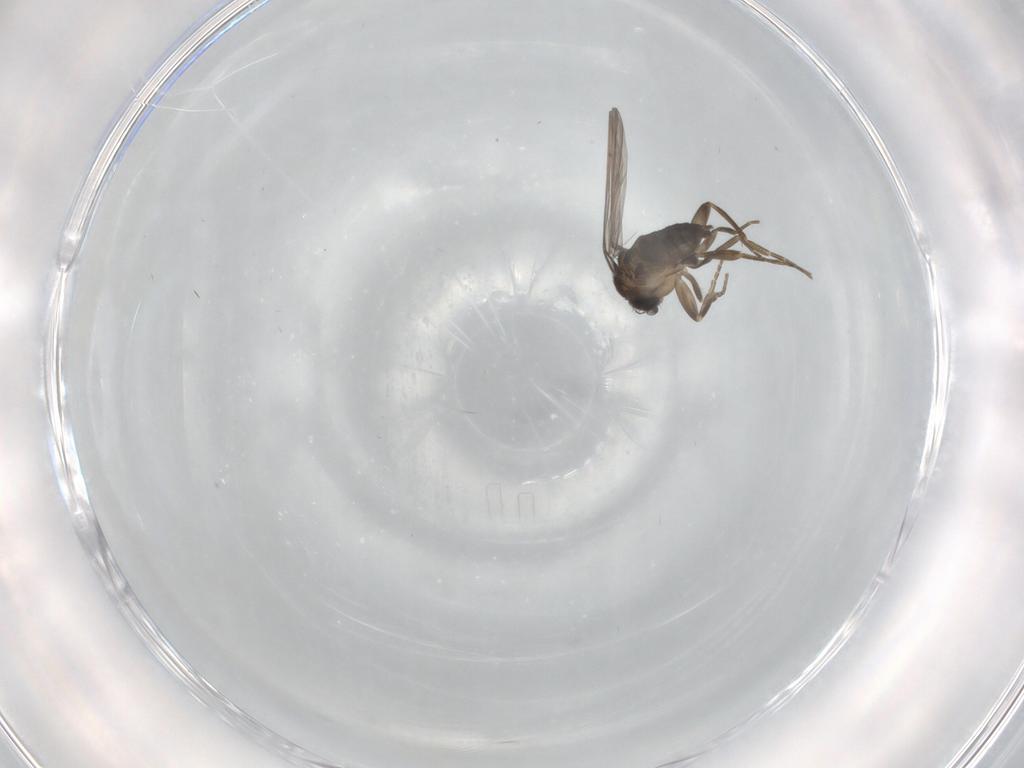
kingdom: Animalia
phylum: Arthropoda
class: Insecta
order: Diptera
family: Phoridae
